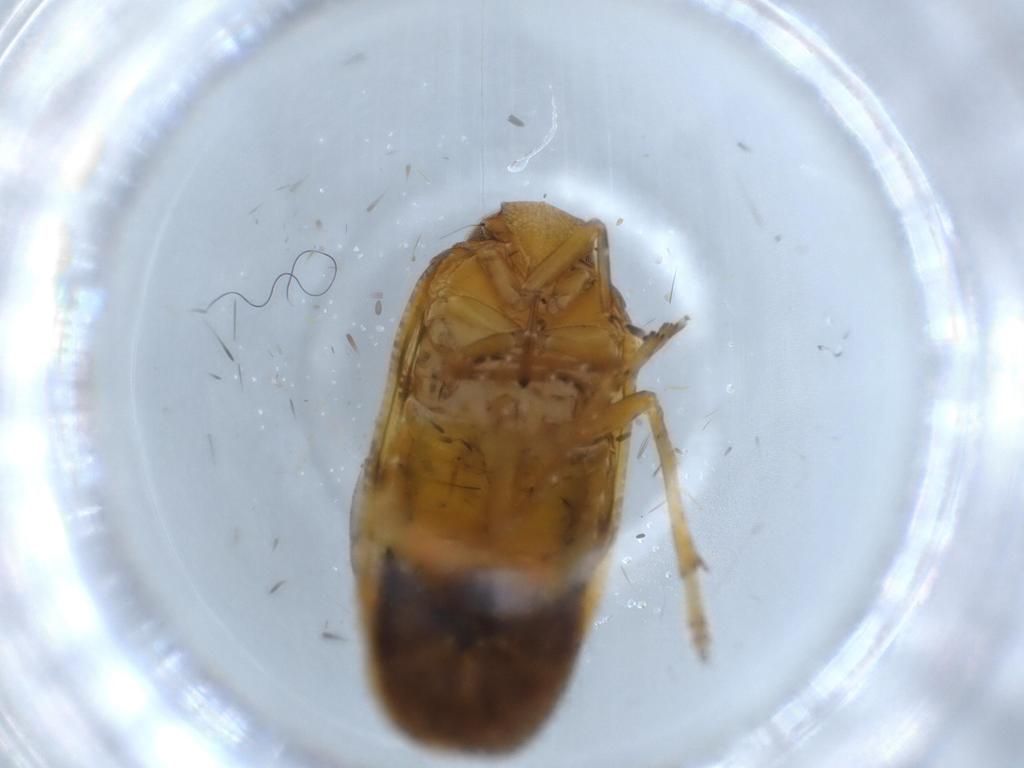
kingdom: Animalia
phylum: Arthropoda
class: Insecta
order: Hemiptera
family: Achilidae
